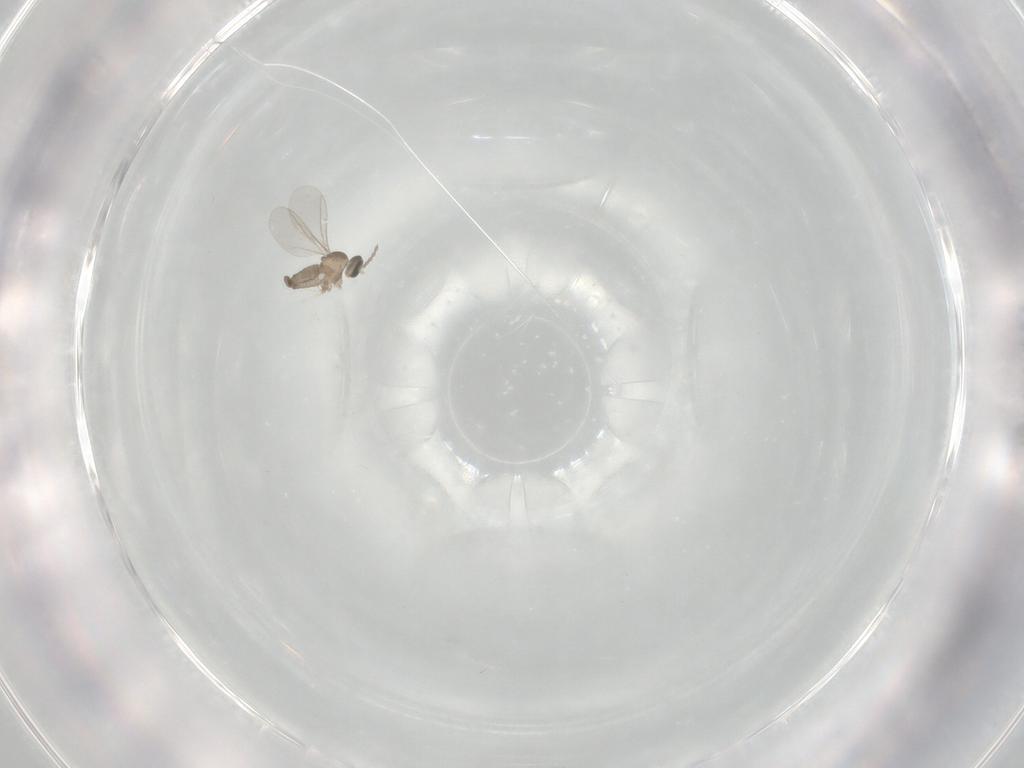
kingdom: Animalia
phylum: Arthropoda
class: Insecta
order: Diptera
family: Cecidomyiidae
